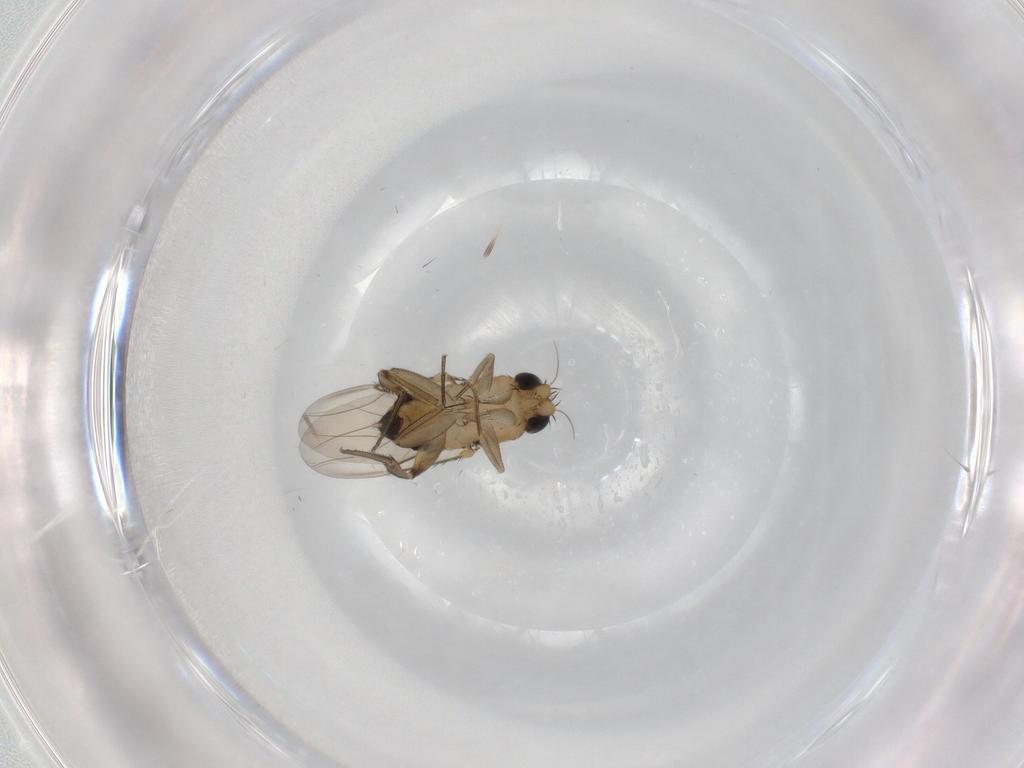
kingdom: Animalia
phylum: Arthropoda
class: Insecta
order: Diptera
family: Phoridae
